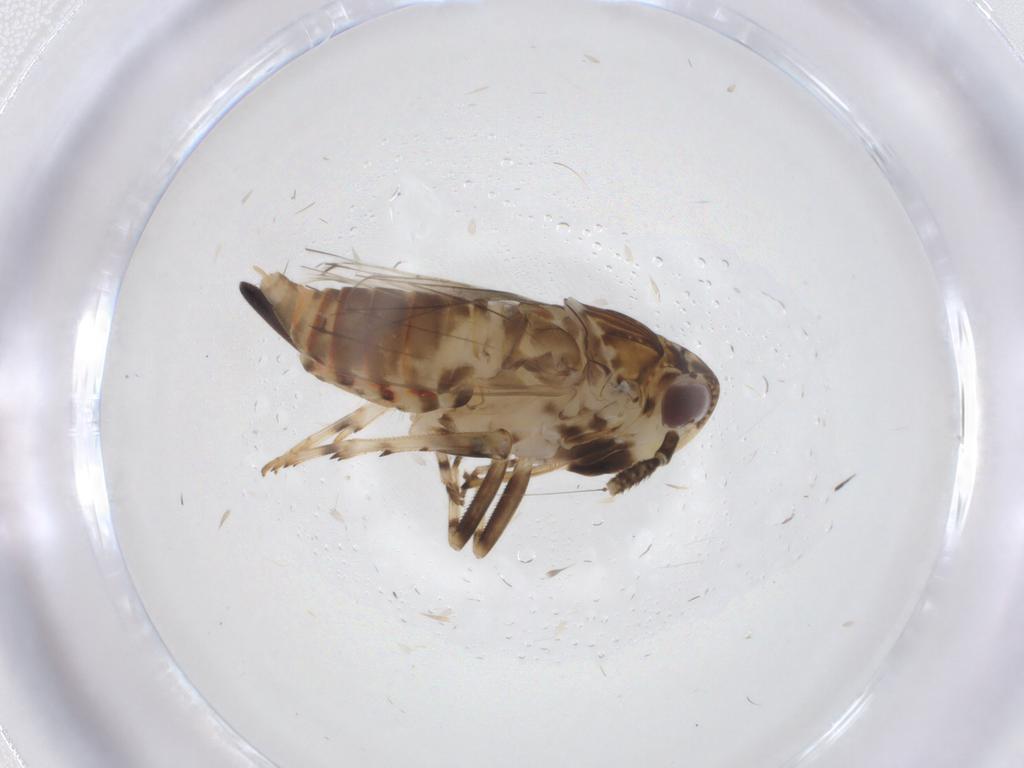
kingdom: Animalia
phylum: Arthropoda
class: Insecta
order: Hemiptera
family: Delphacidae
